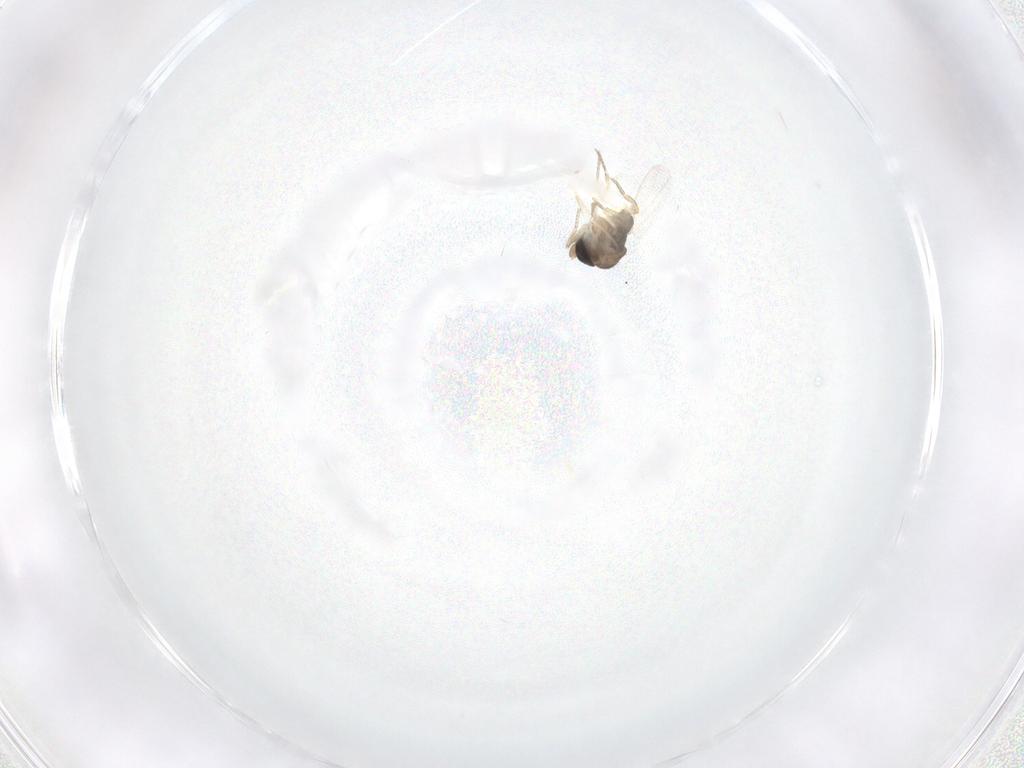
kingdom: Animalia
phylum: Arthropoda
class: Insecta
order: Diptera
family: Phoridae
